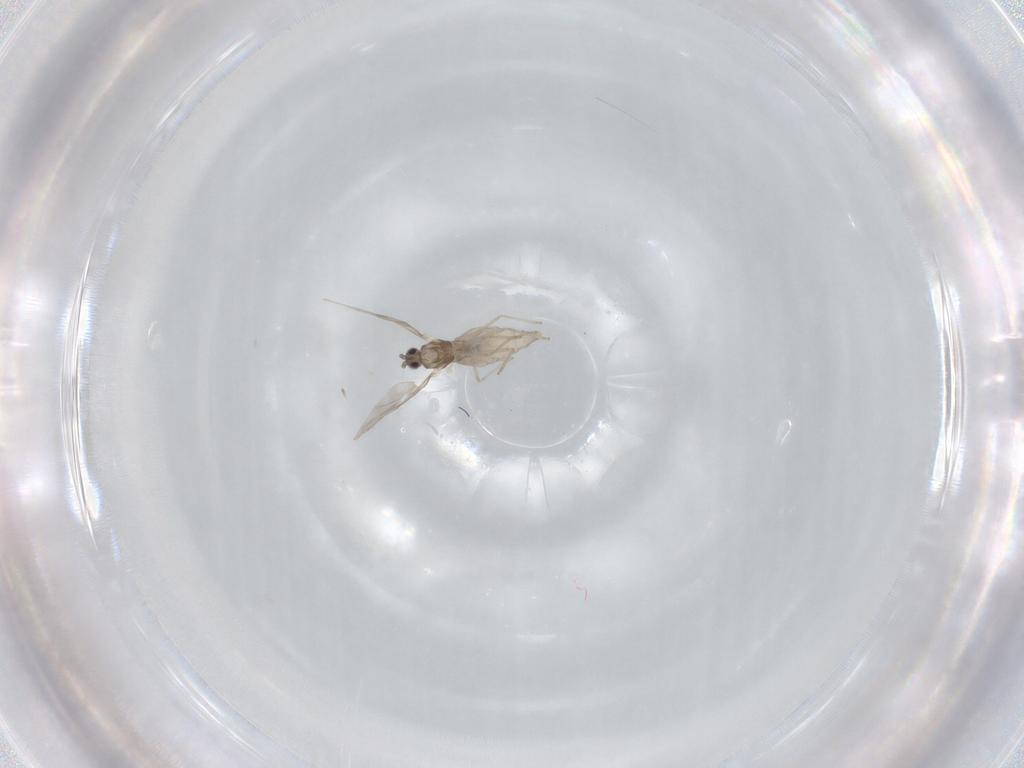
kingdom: Animalia
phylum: Arthropoda
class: Insecta
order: Diptera
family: Cecidomyiidae
